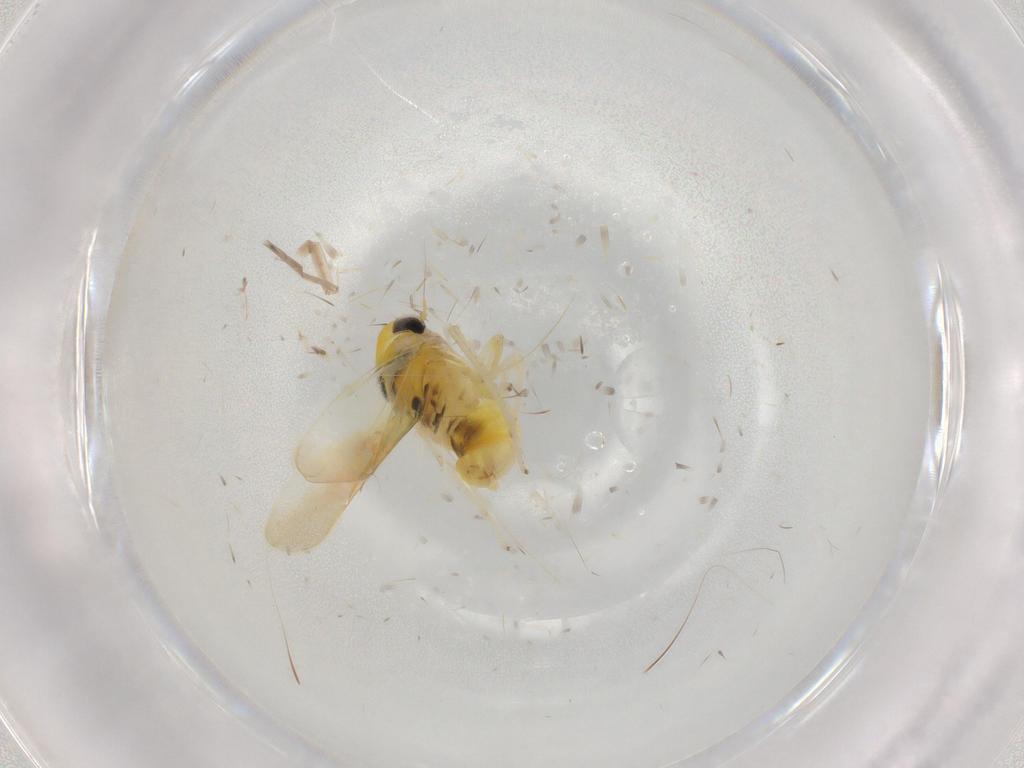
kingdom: Animalia
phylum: Arthropoda
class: Insecta
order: Hemiptera
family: Cicadellidae
